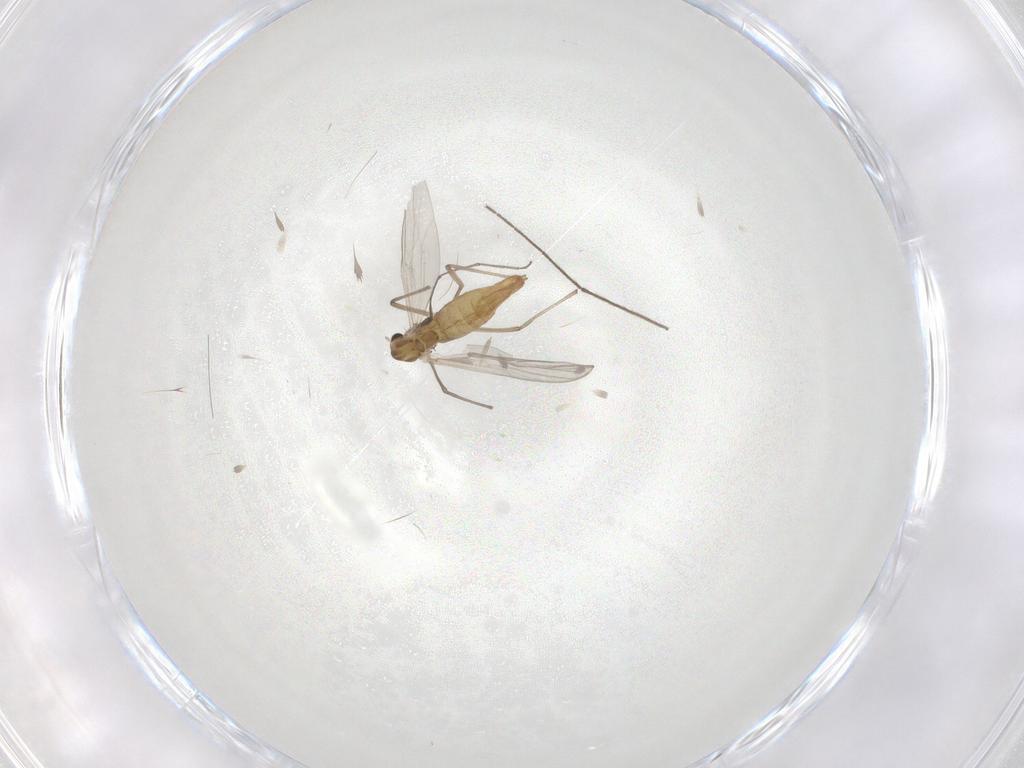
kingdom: Animalia
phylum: Arthropoda
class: Insecta
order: Diptera
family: Chironomidae
